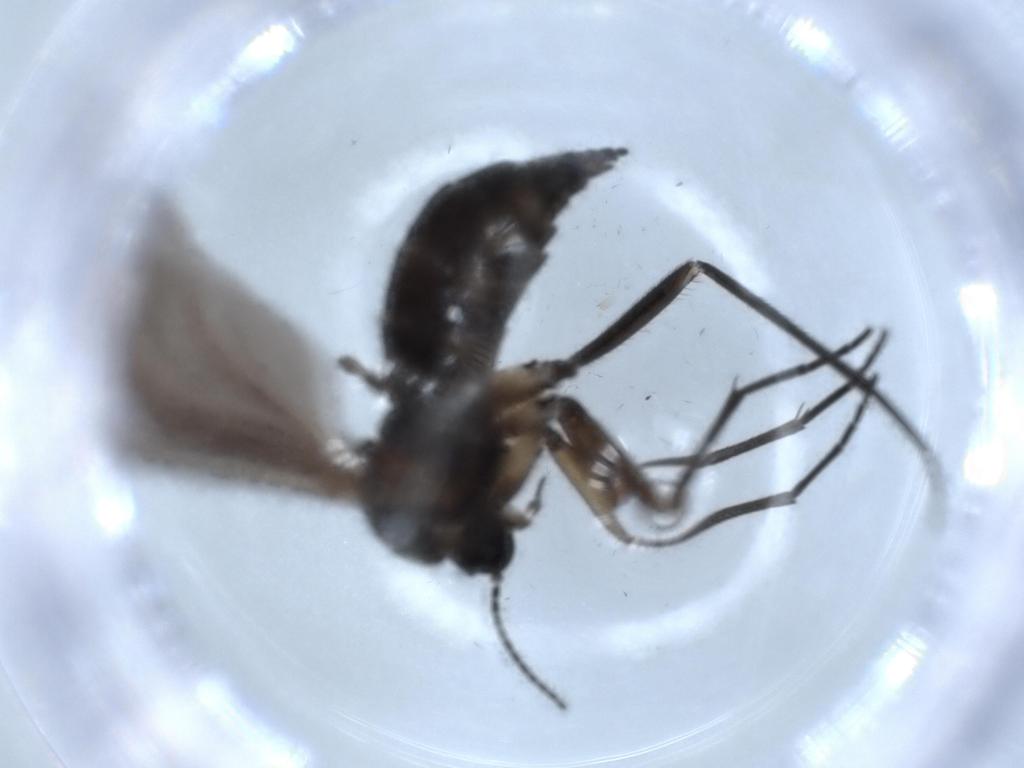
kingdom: Animalia
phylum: Arthropoda
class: Insecta
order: Diptera
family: Sciaridae
